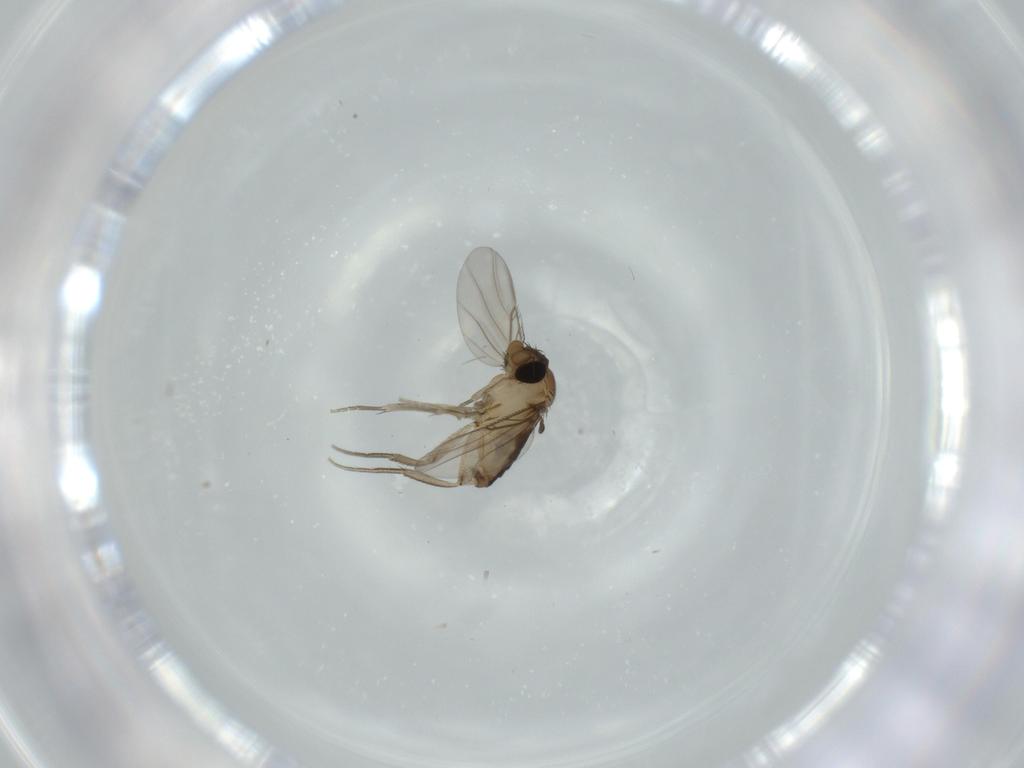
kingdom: Animalia
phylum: Arthropoda
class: Insecta
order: Diptera
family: Phoridae
